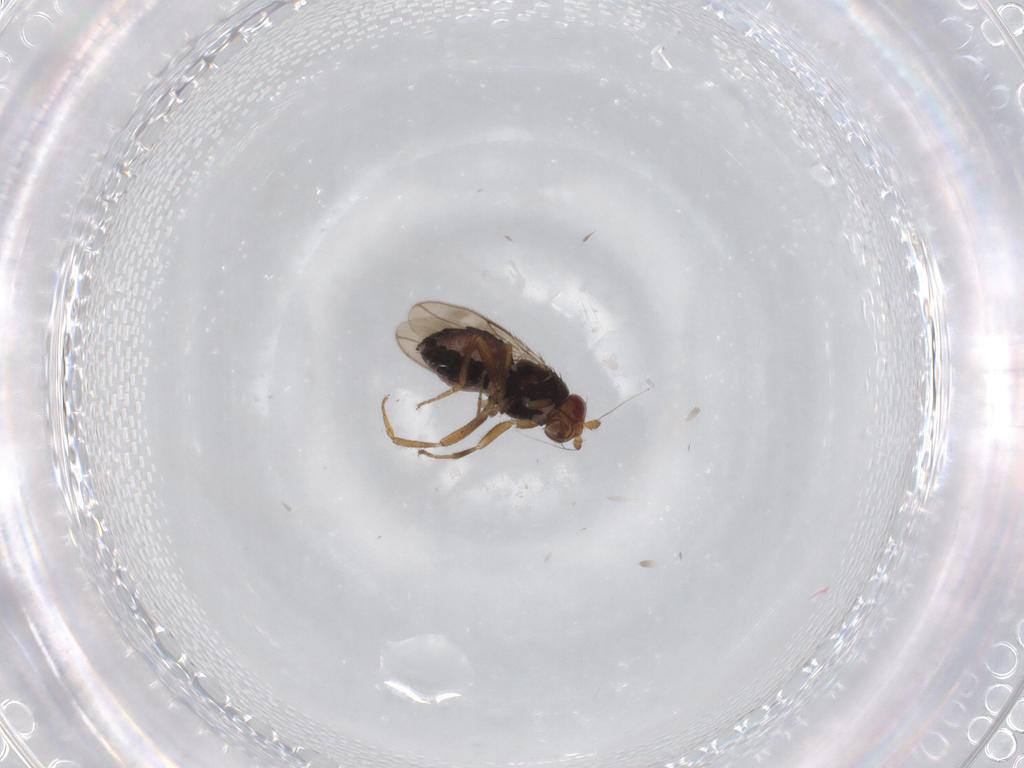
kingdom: Animalia
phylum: Arthropoda
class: Insecta
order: Diptera
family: Sphaeroceridae
